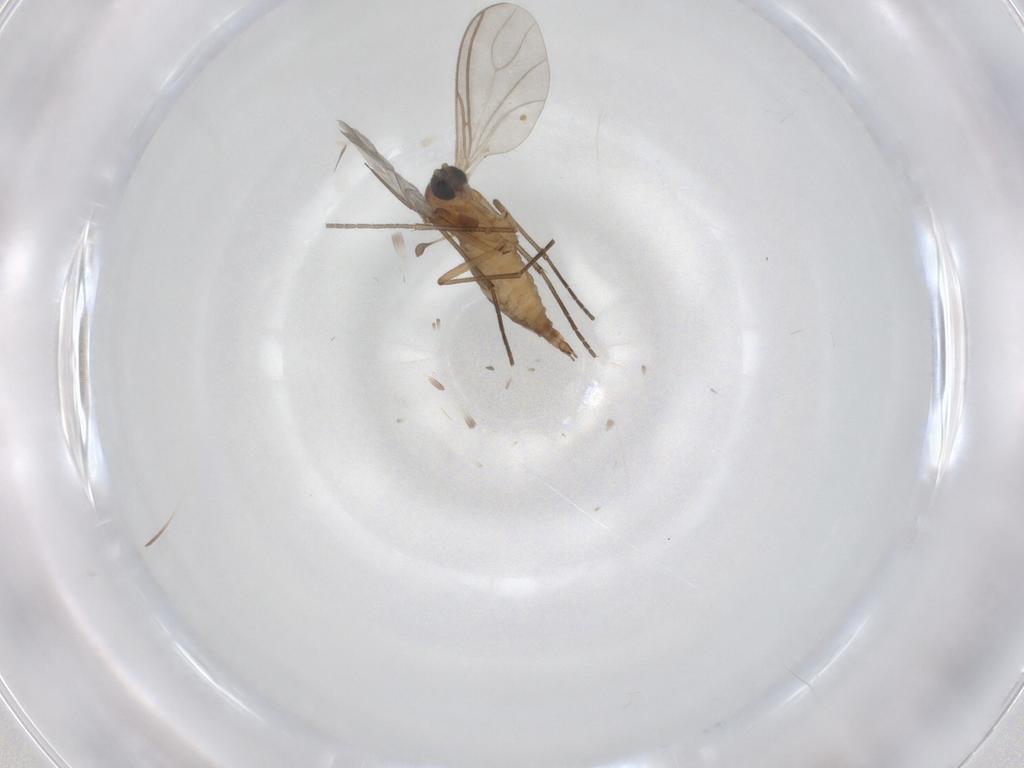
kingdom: Animalia
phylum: Arthropoda
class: Insecta
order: Diptera
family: Sciaridae
